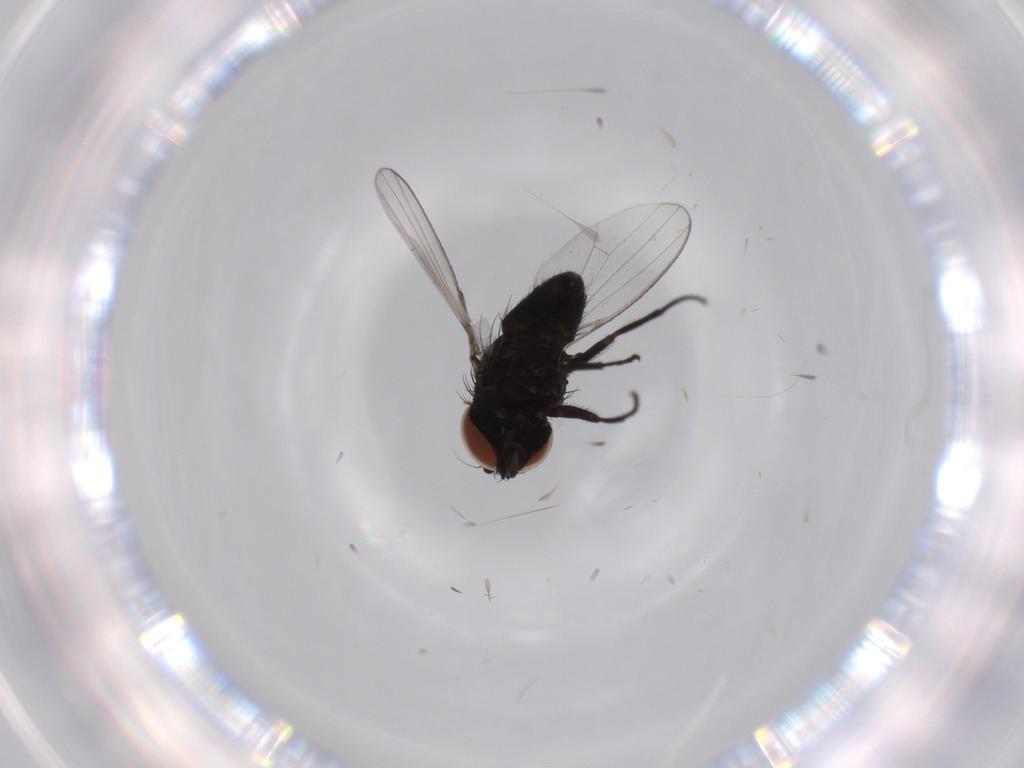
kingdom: Animalia
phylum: Arthropoda
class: Insecta
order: Diptera
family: Milichiidae
